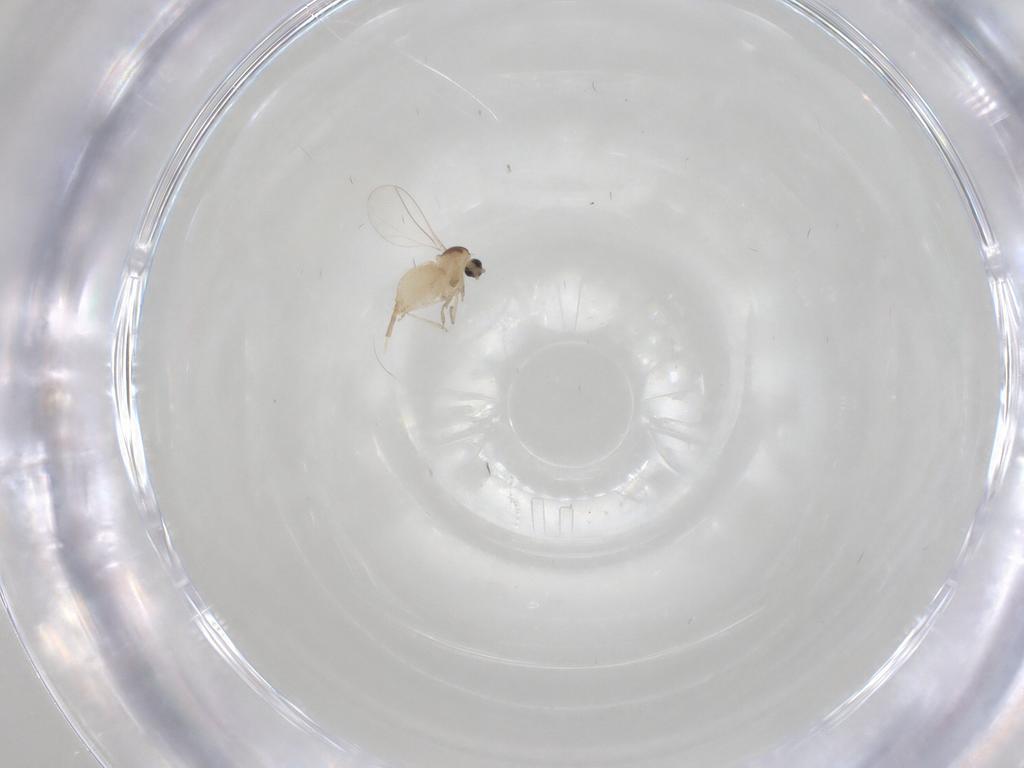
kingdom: Animalia
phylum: Arthropoda
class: Insecta
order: Diptera
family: Cecidomyiidae
